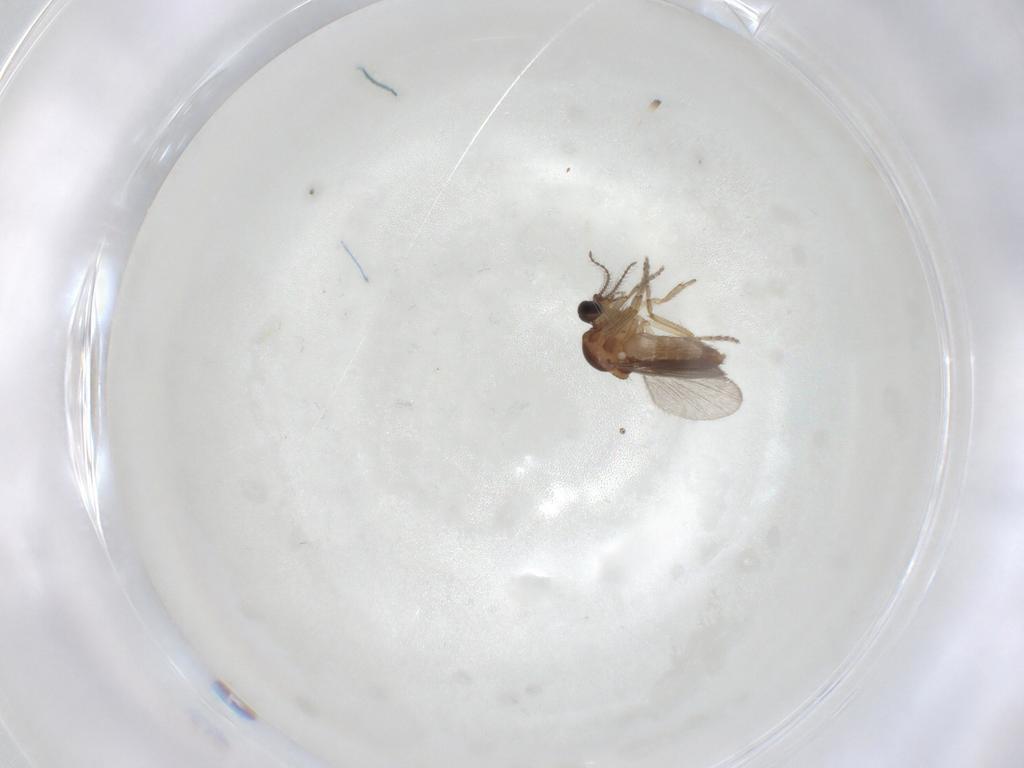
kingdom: Animalia
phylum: Arthropoda
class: Insecta
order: Diptera
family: Ceratopogonidae
